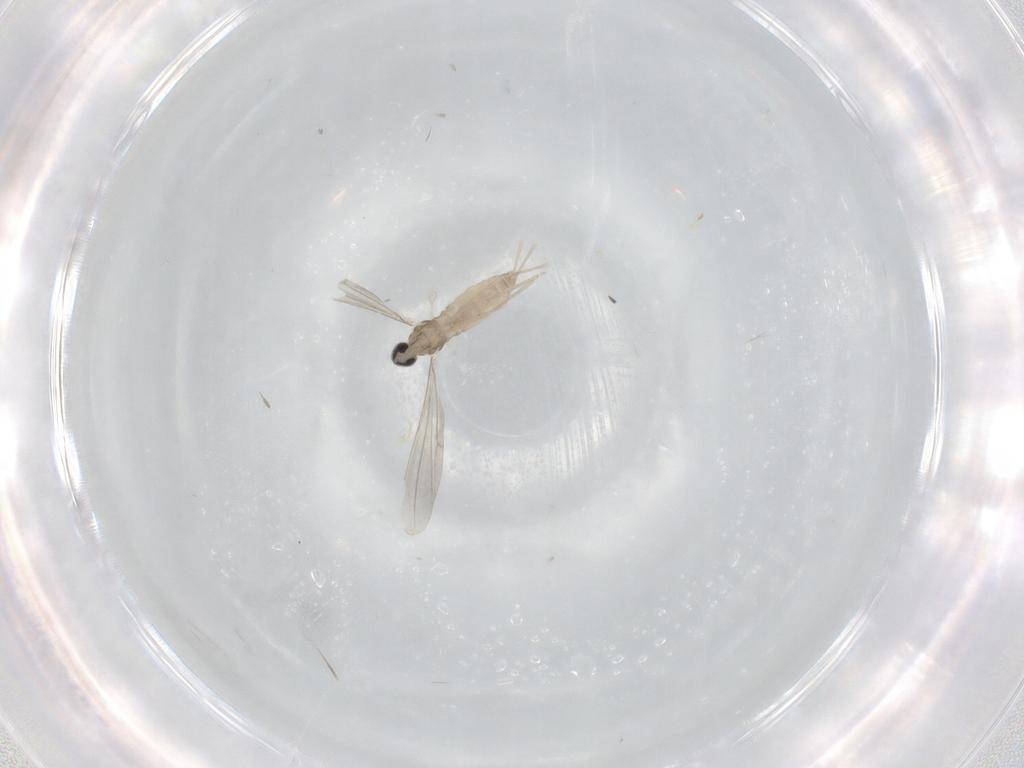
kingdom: Animalia
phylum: Arthropoda
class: Insecta
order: Diptera
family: Cecidomyiidae
